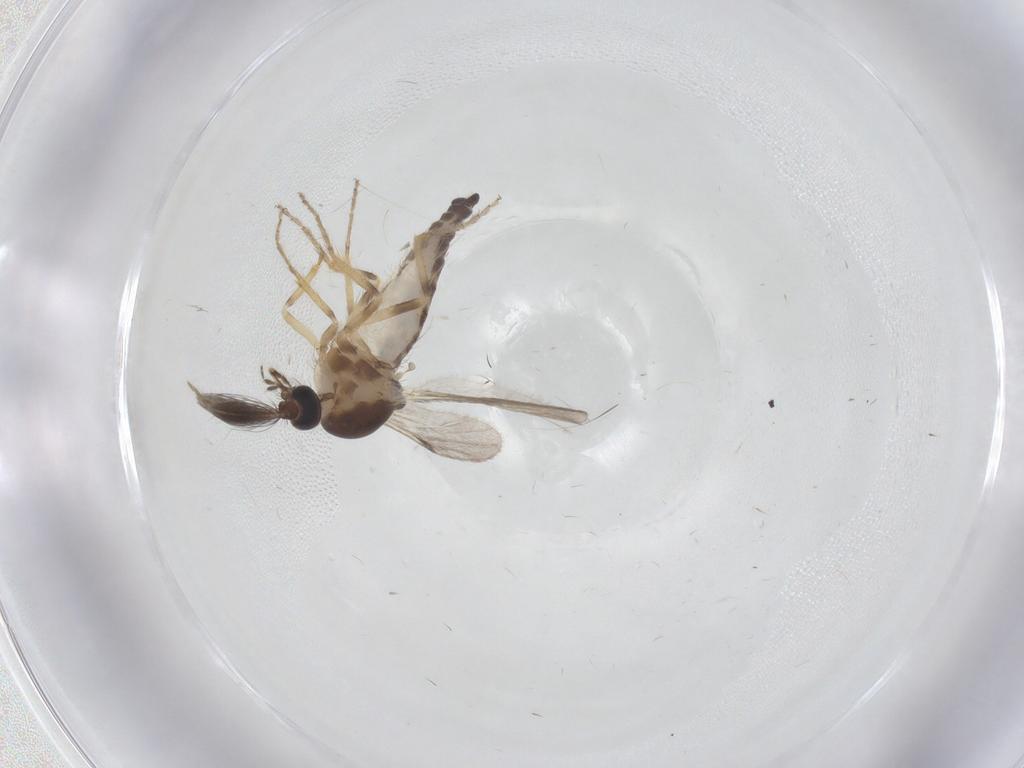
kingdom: Animalia
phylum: Arthropoda
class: Insecta
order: Diptera
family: Ceratopogonidae
